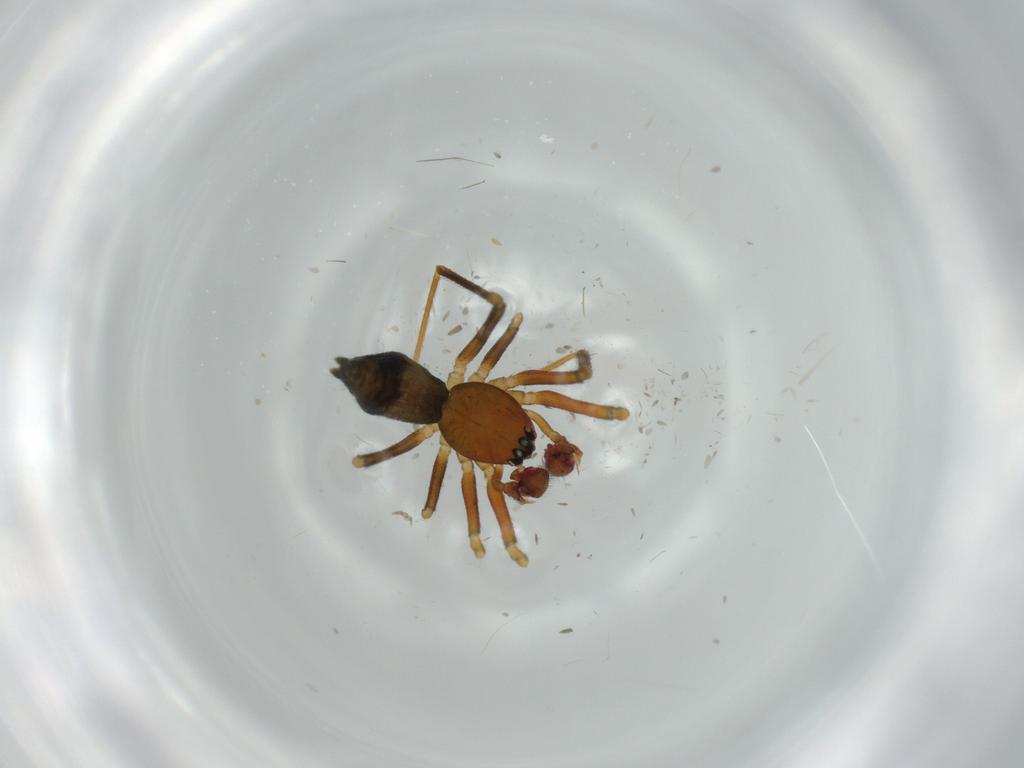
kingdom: Animalia
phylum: Arthropoda
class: Arachnida
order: Araneae
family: Linyphiidae
